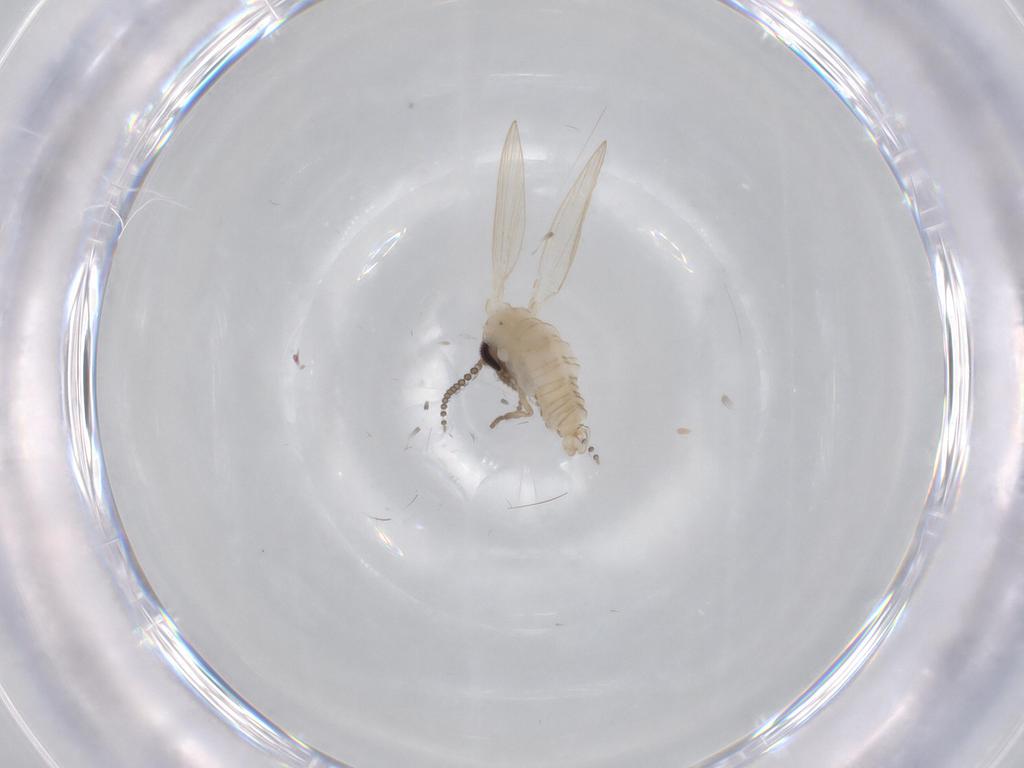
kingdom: Animalia
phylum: Arthropoda
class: Insecta
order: Diptera
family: Psychodidae
